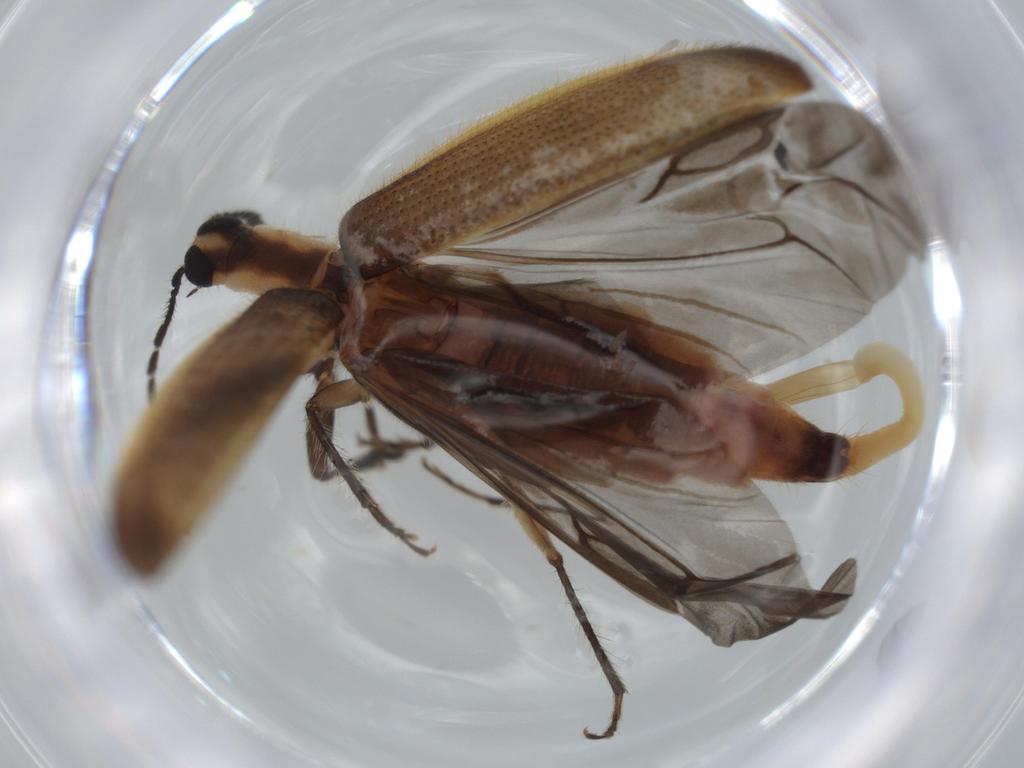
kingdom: Animalia
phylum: Arthropoda
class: Insecta
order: Coleoptera
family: Cleridae
